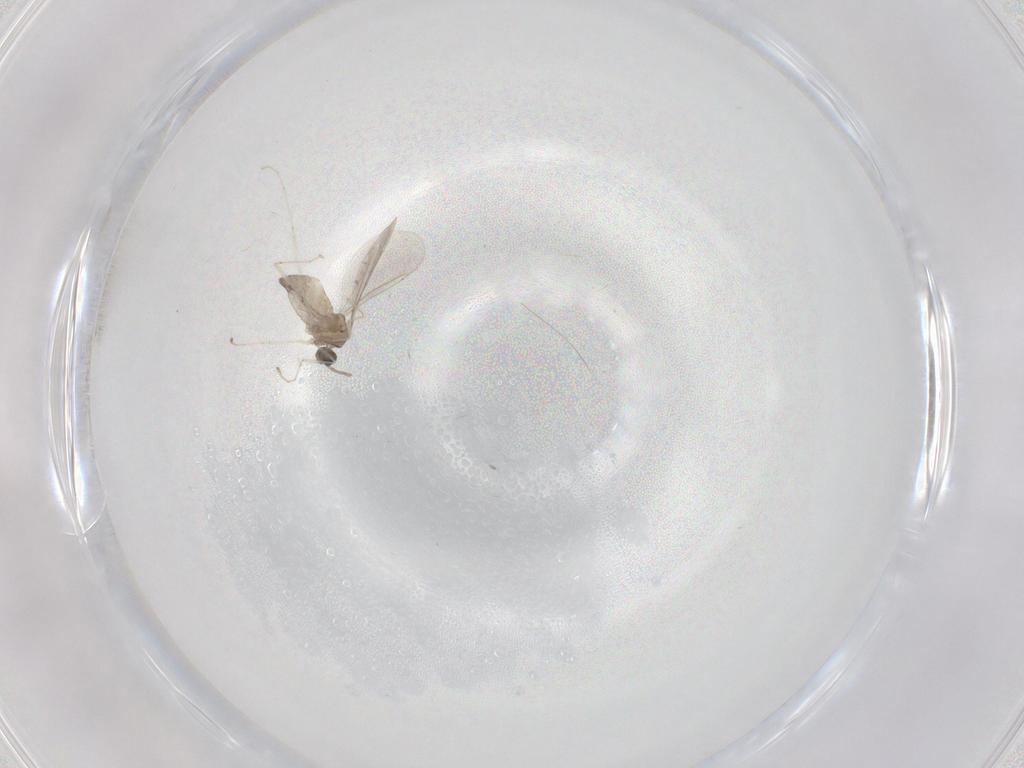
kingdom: Animalia
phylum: Arthropoda
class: Insecta
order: Diptera
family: Cecidomyiidae
